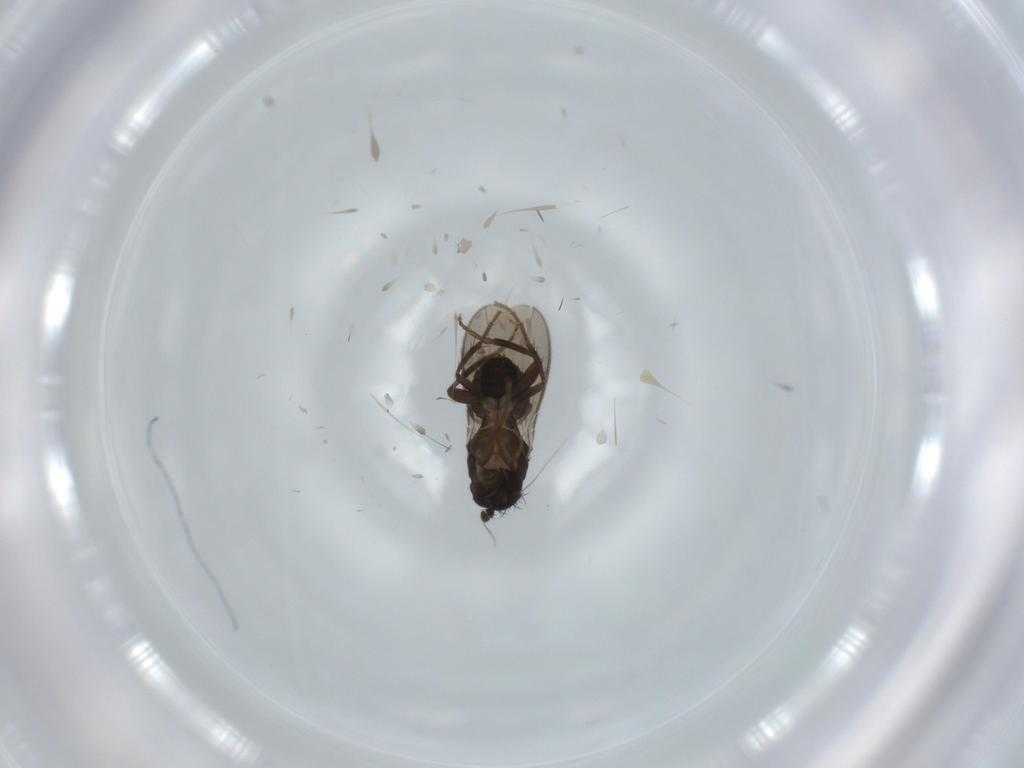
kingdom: Animalia
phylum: Arthropoda
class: Insecta
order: Diptera
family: Sphaeroceridae
